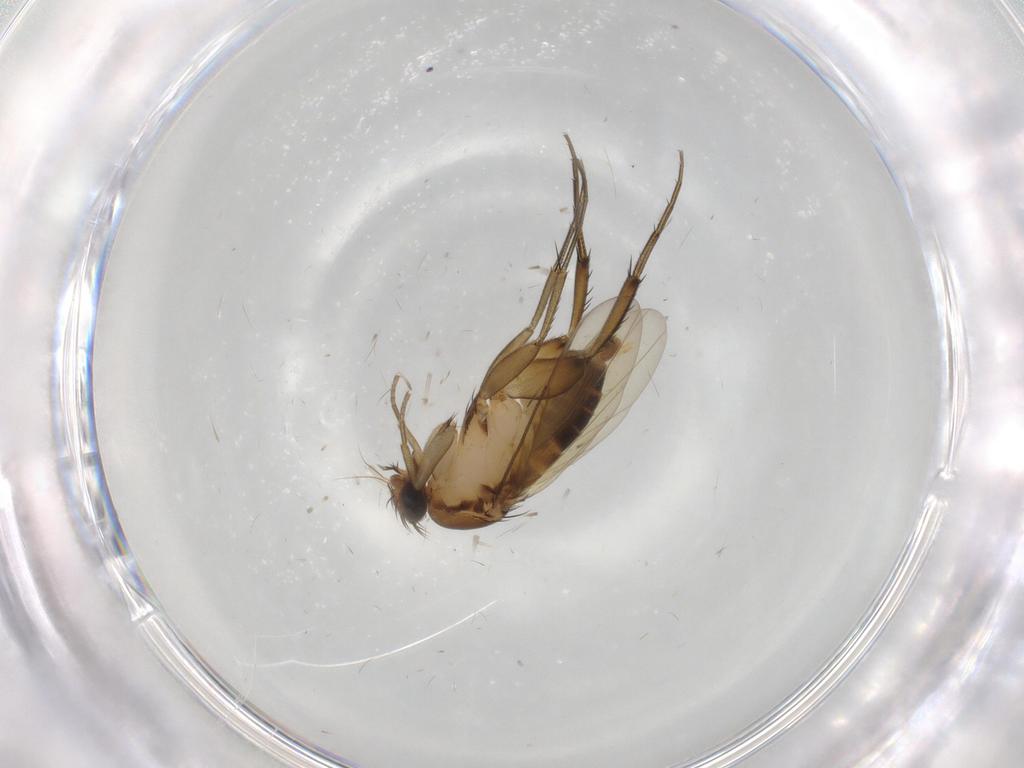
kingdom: Animalia
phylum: Arthropoda
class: Insecta
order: Diptera
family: Phoridae
